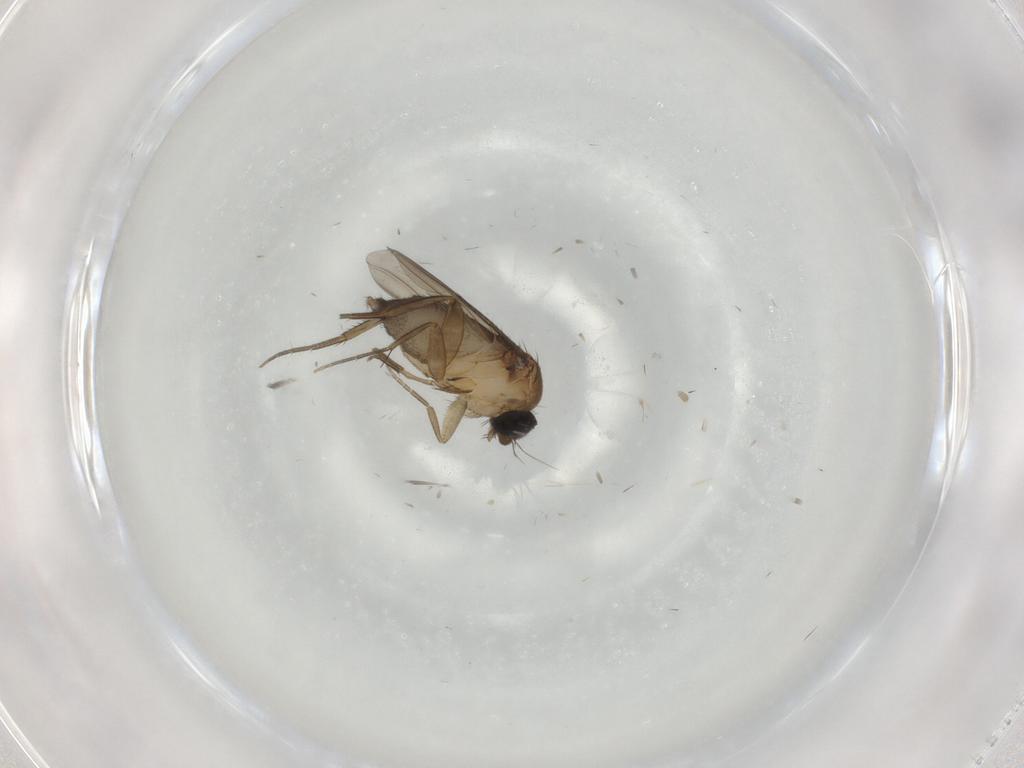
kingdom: Animalia
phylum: Arthropoda
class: Insecta
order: Diptera
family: Phoridae
